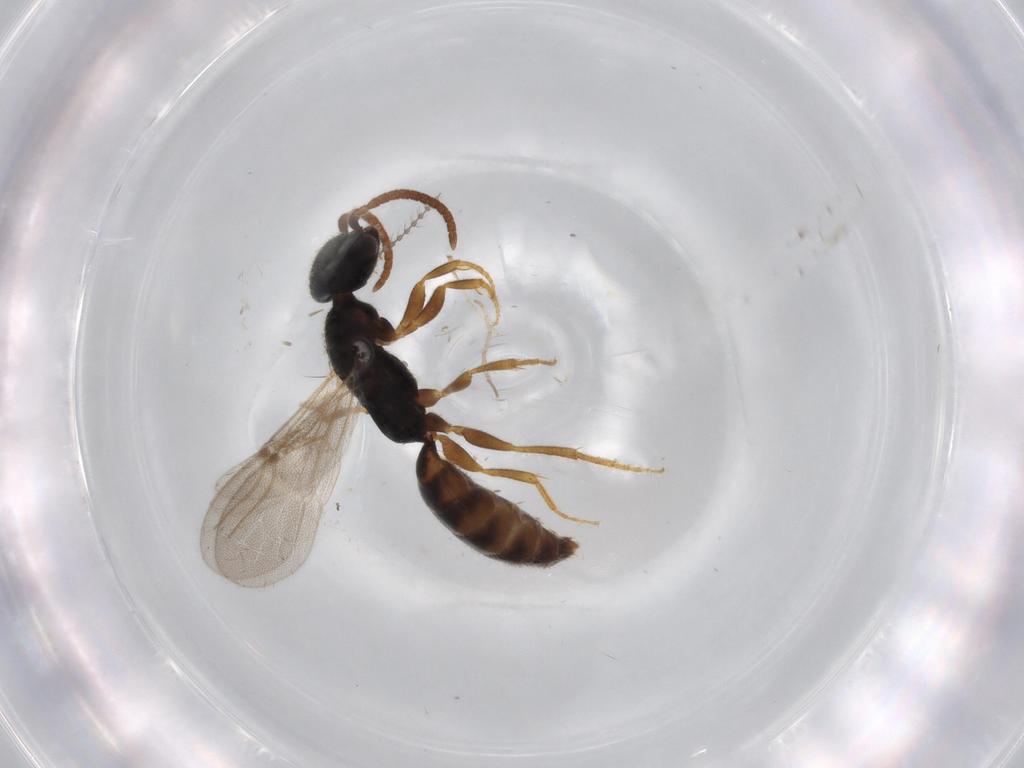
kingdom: Animalia
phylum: Arthropoda
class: Insecta
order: Hymenoptera
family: Bethylidae
